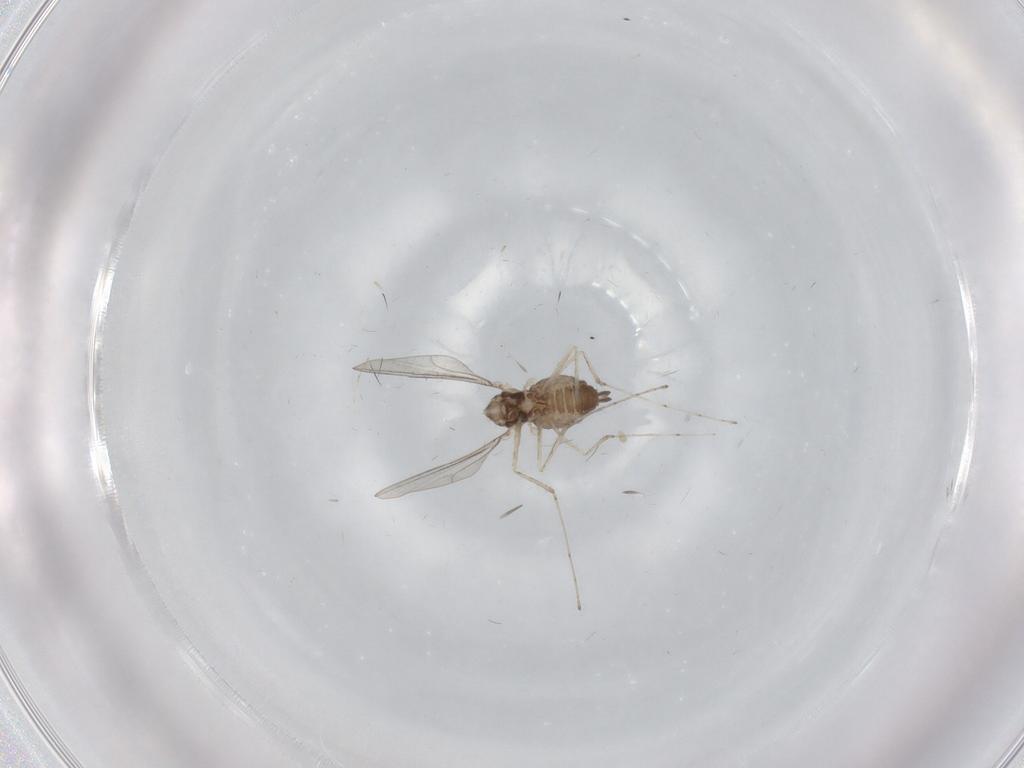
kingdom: Animalia
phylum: Arthropoda
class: Insecta
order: Diptera
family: Cecidomyiidae
